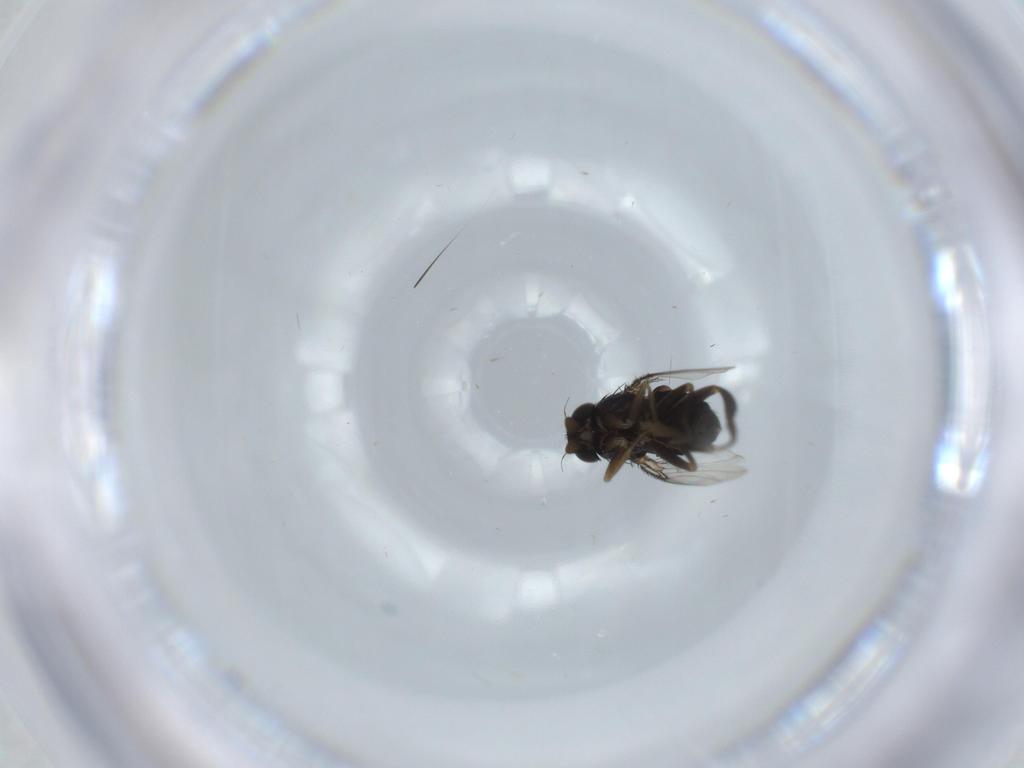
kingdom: Animalia
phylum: Arthropoda
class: Insecta
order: Diptera
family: Phoridae
